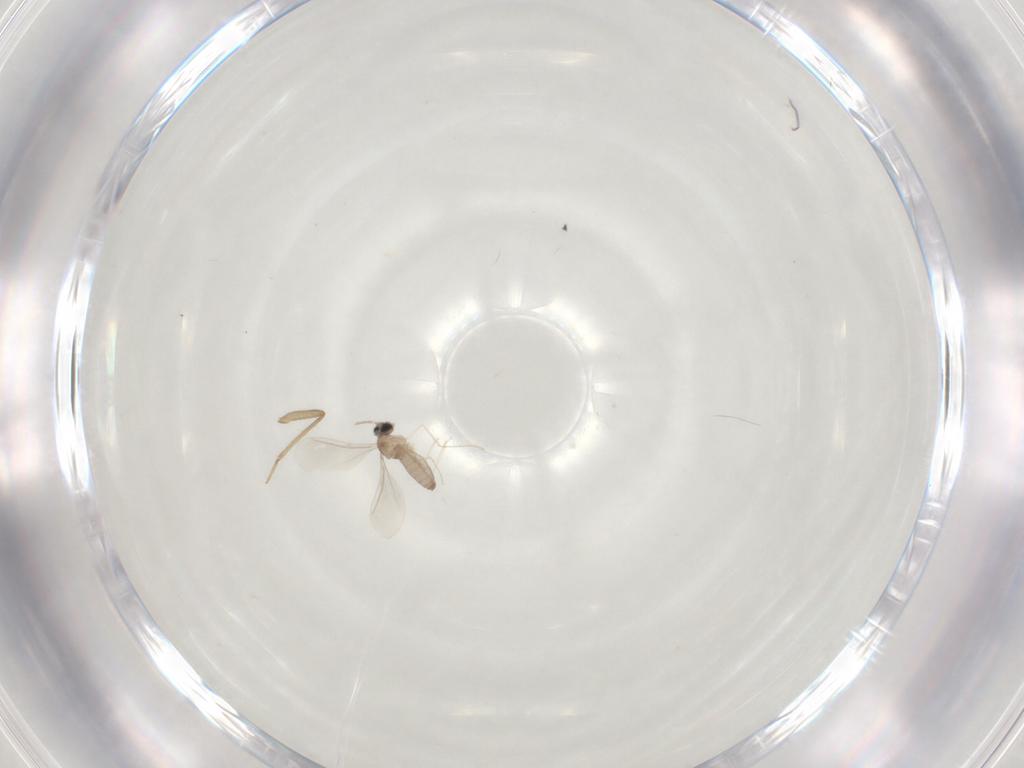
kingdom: Animalia
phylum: Arthropoda
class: Insecta
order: Diptera
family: Cecidomyiidae
